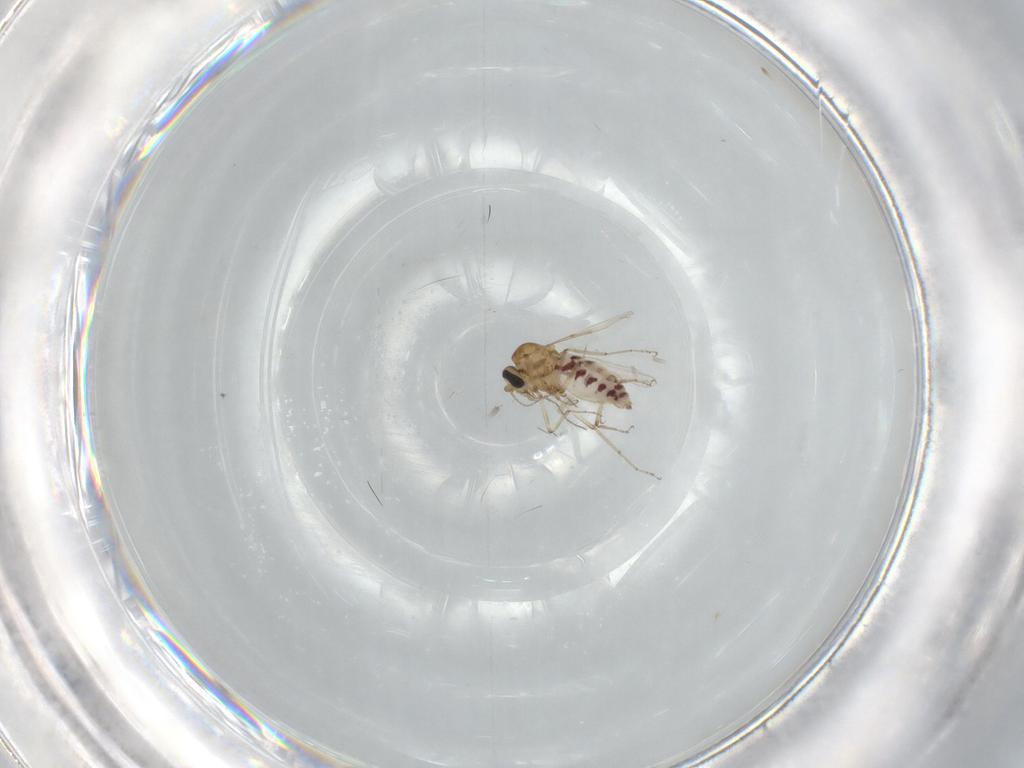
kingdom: Animalia
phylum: Arthropoda
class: Insecta
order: Diptera
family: Ceratopogonidae
